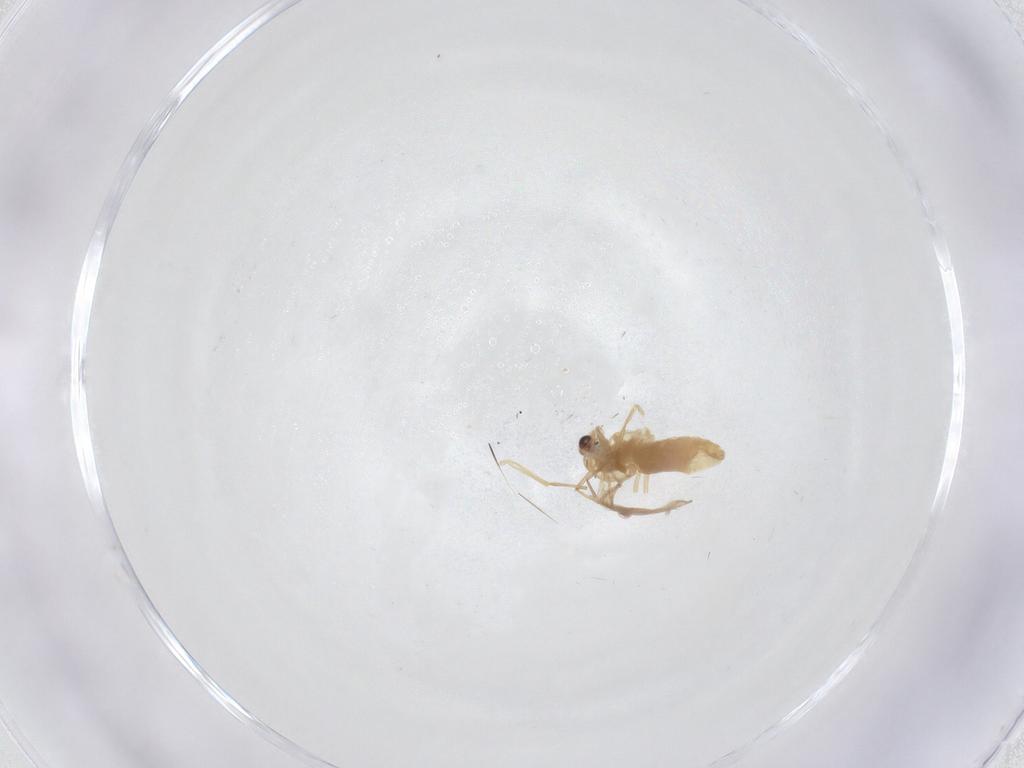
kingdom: Animalia
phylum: Arthropoda
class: Insecta
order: Diptera
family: Chironomidae
